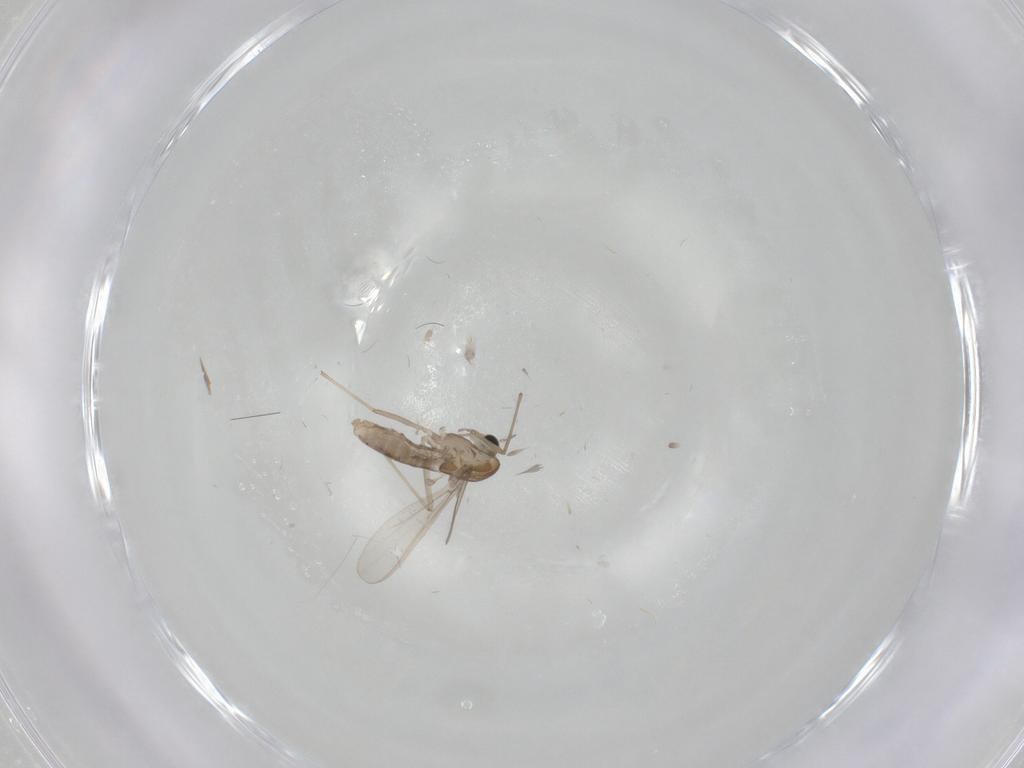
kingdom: Animalia
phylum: Arthropoda
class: Insecta
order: Diptera
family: Chironomidae
